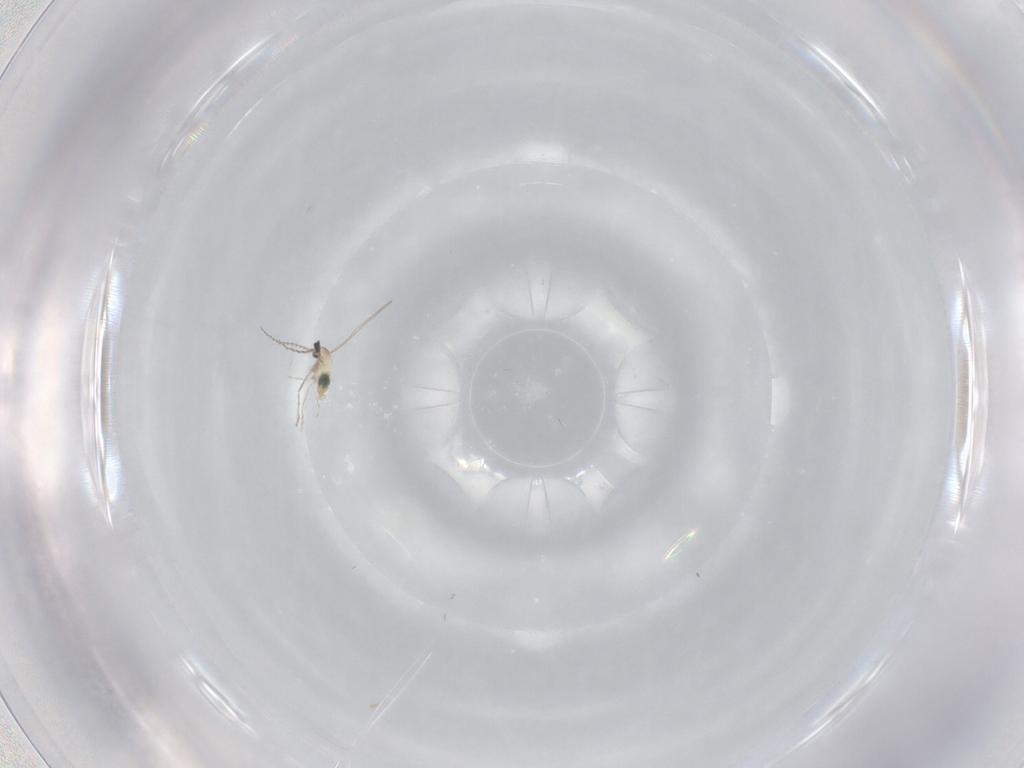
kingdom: Animalia
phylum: Arthropoda
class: Insecta
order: Diptera
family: Cecidomyiidae
